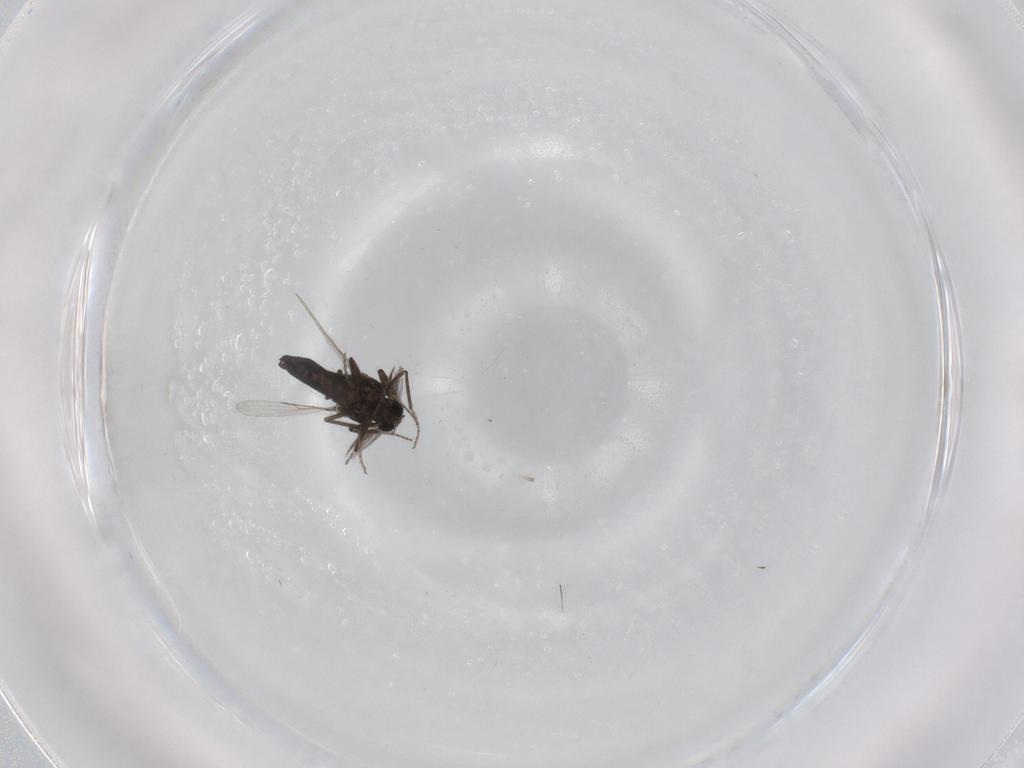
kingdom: Animalia
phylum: Arthropoda
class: Insecta
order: Diptera
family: Ceratopogonidae
